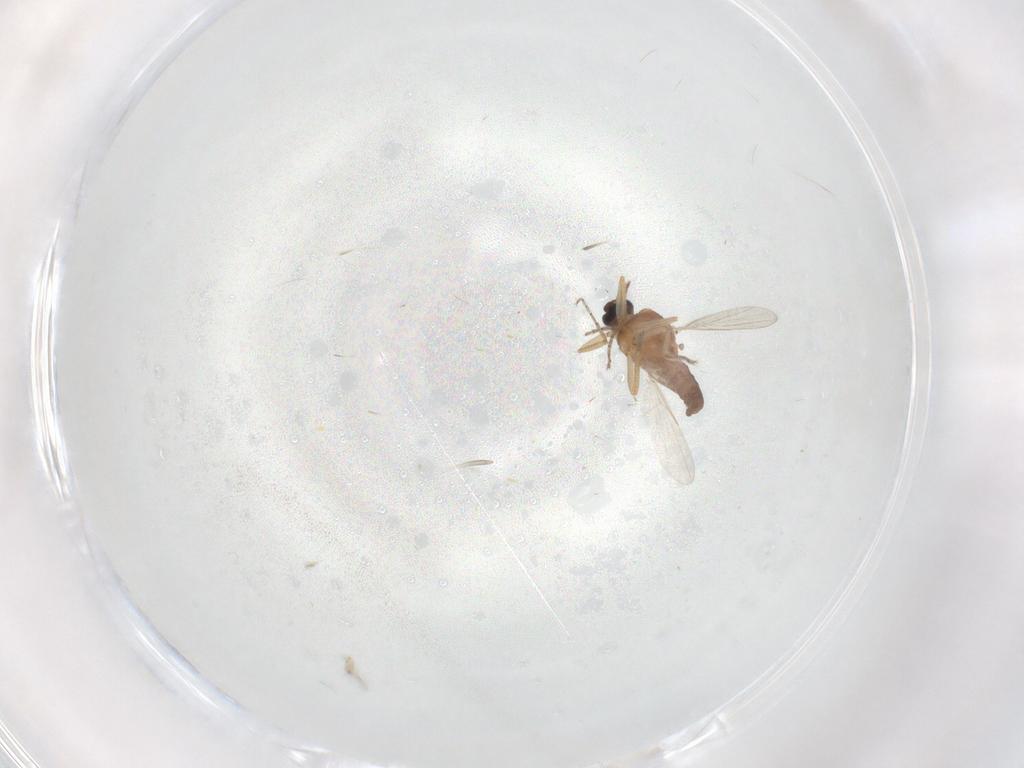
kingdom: Animalia
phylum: Arthropoda
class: Insecta
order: Diptera
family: Ceratopogonidae
